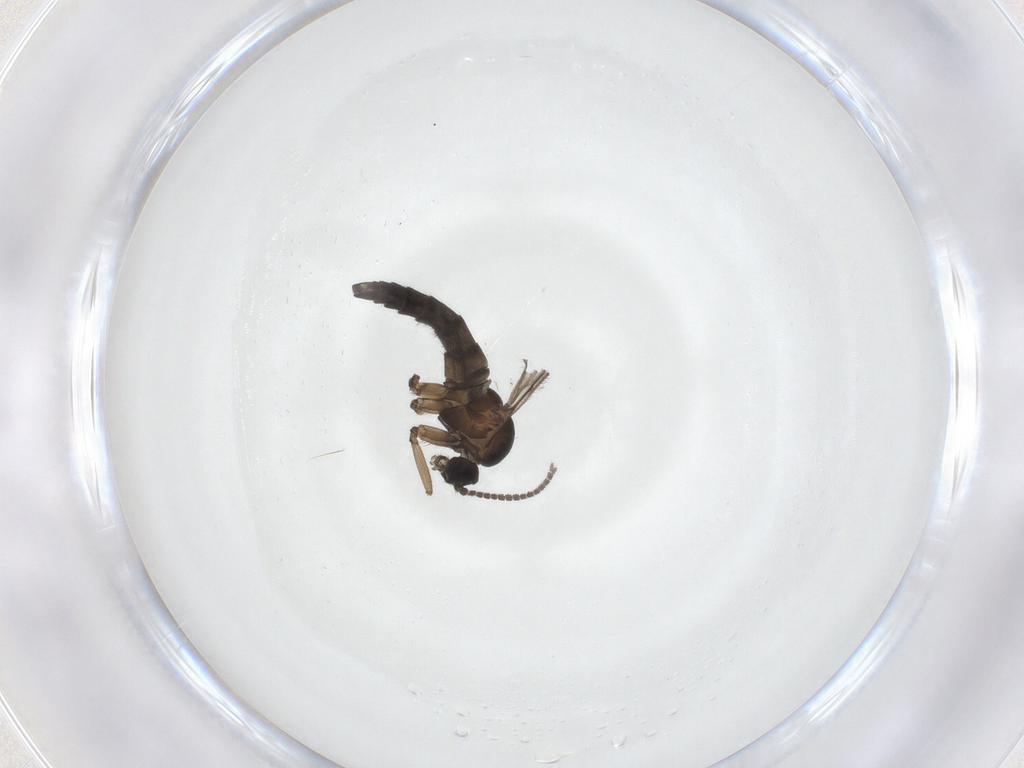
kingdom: Animalia
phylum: Arthropoda
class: Insecta
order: Diptera
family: Sciaridae
